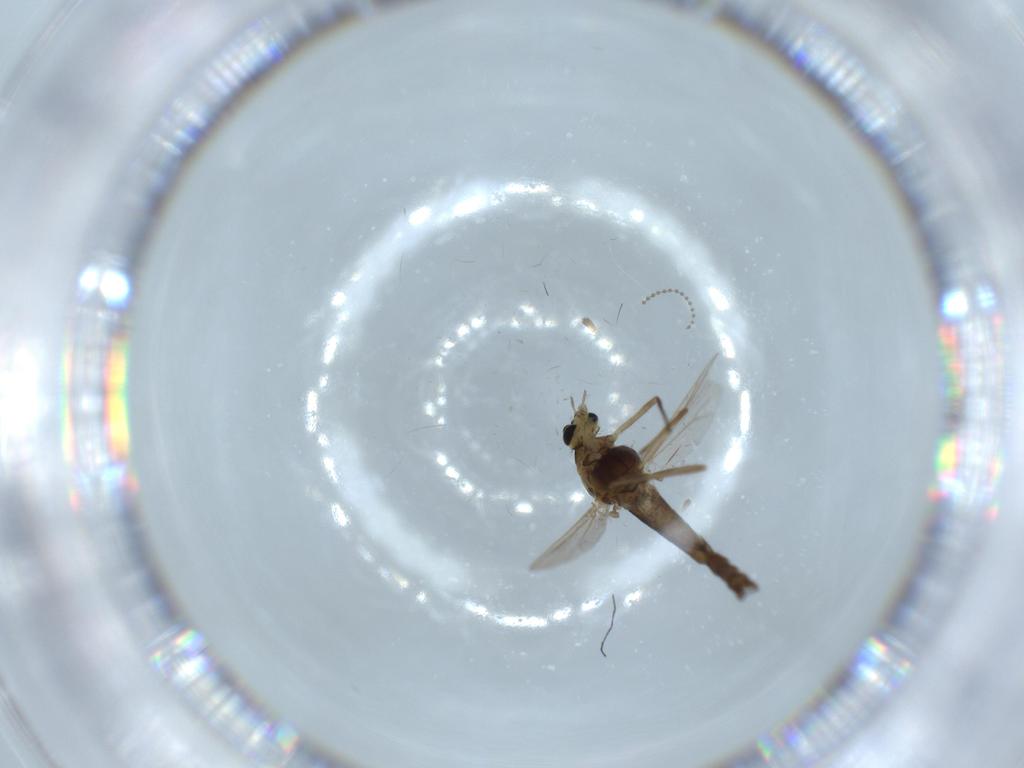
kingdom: Animalia
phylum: Arthropoda
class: Insecta
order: Diptera
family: Chironomidae
